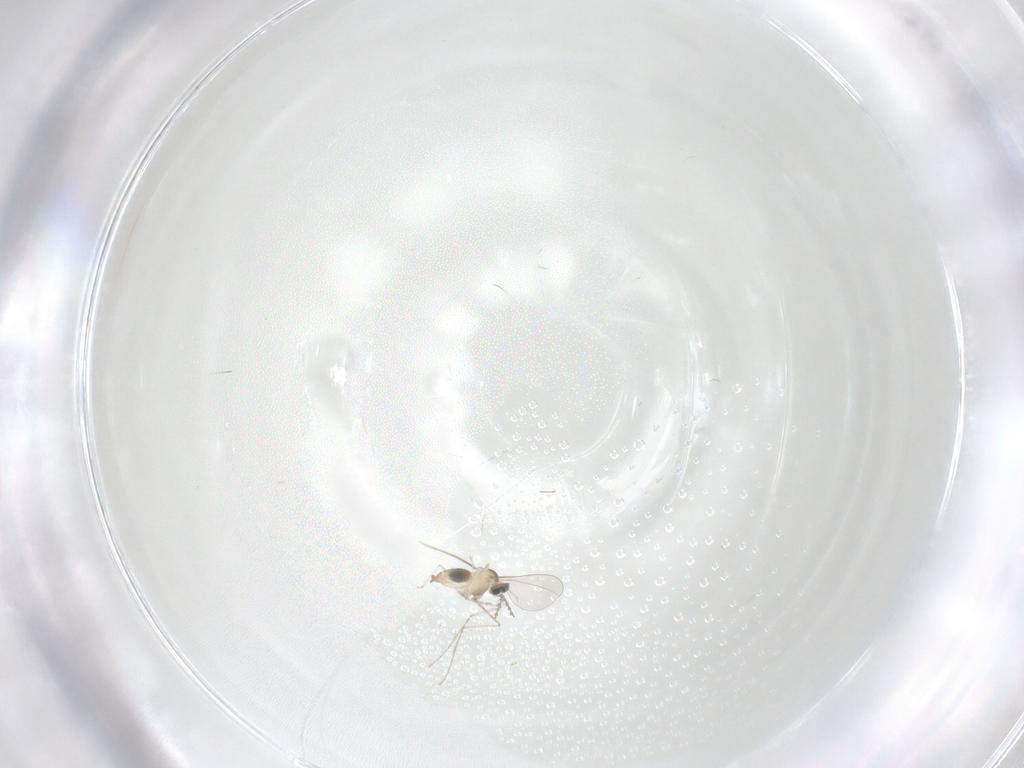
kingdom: Animalia
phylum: Arthropoda
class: Insecta
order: Diptera
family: Cecidomyiidae
